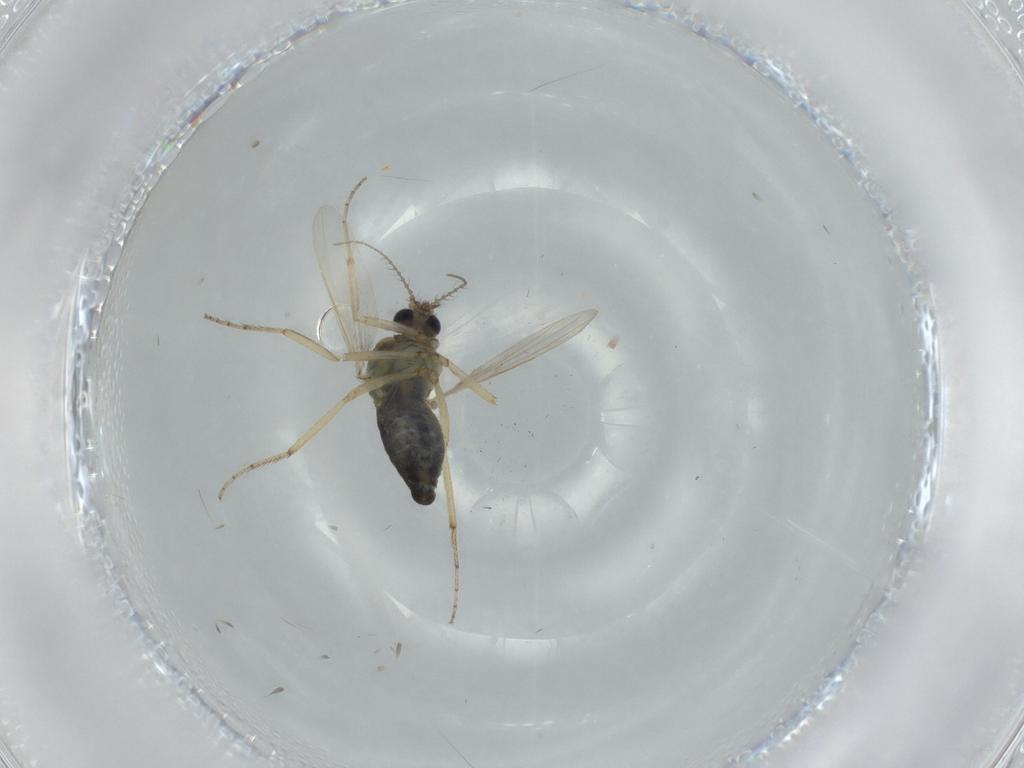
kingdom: Animalia
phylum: Arthropoda
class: Insecta
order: Diptera
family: Ceratopogonidae
